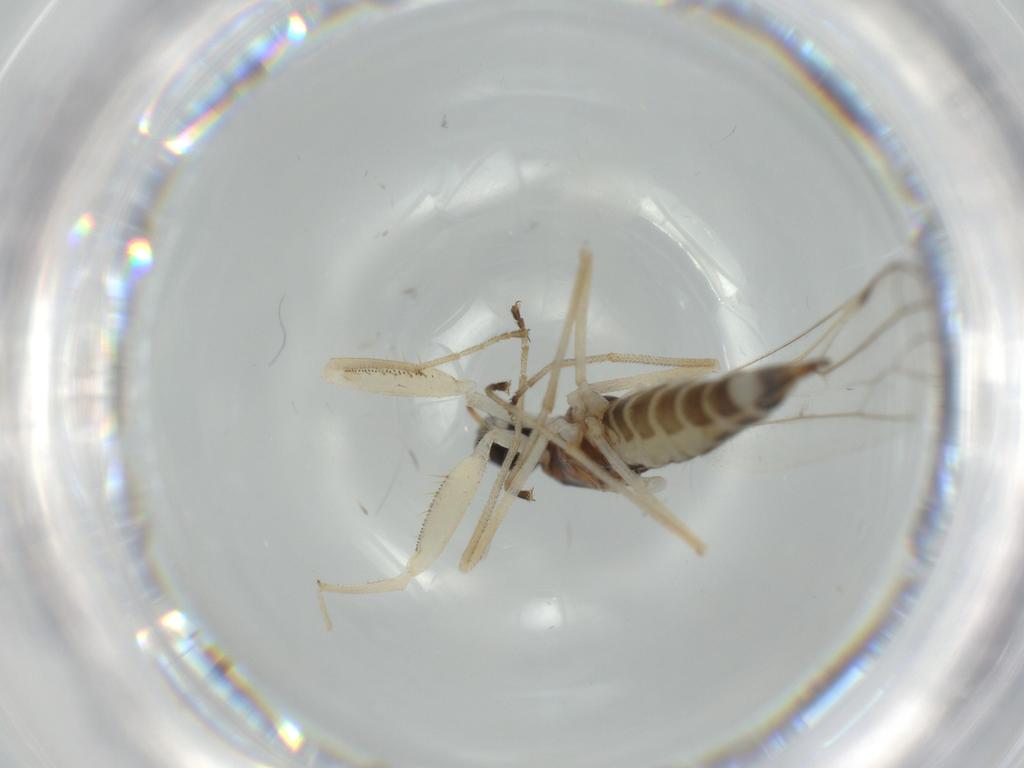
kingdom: Animalia
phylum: Arthropoda
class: Insecta
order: Diptera
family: Empididae
